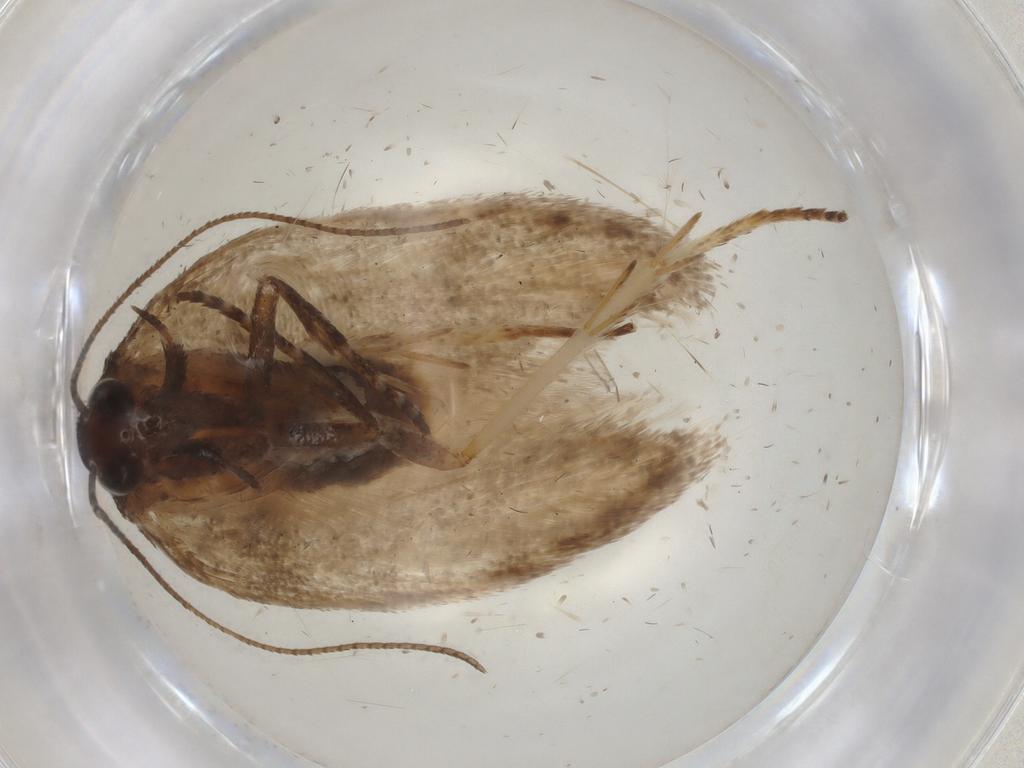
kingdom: Animalia
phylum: Arthropoda
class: Insecta
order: Lepidoptera
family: Cosmopterigidae
